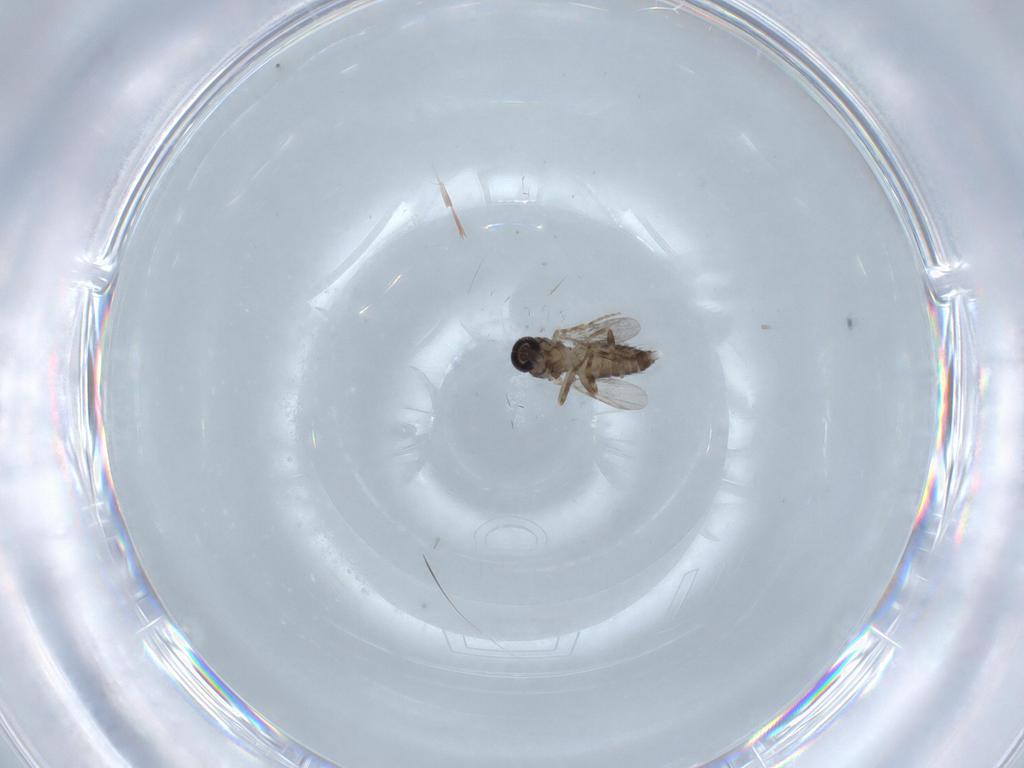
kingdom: Animalia
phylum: Arthropoda
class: Insecta
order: Diptera
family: Ceratopogonidae
